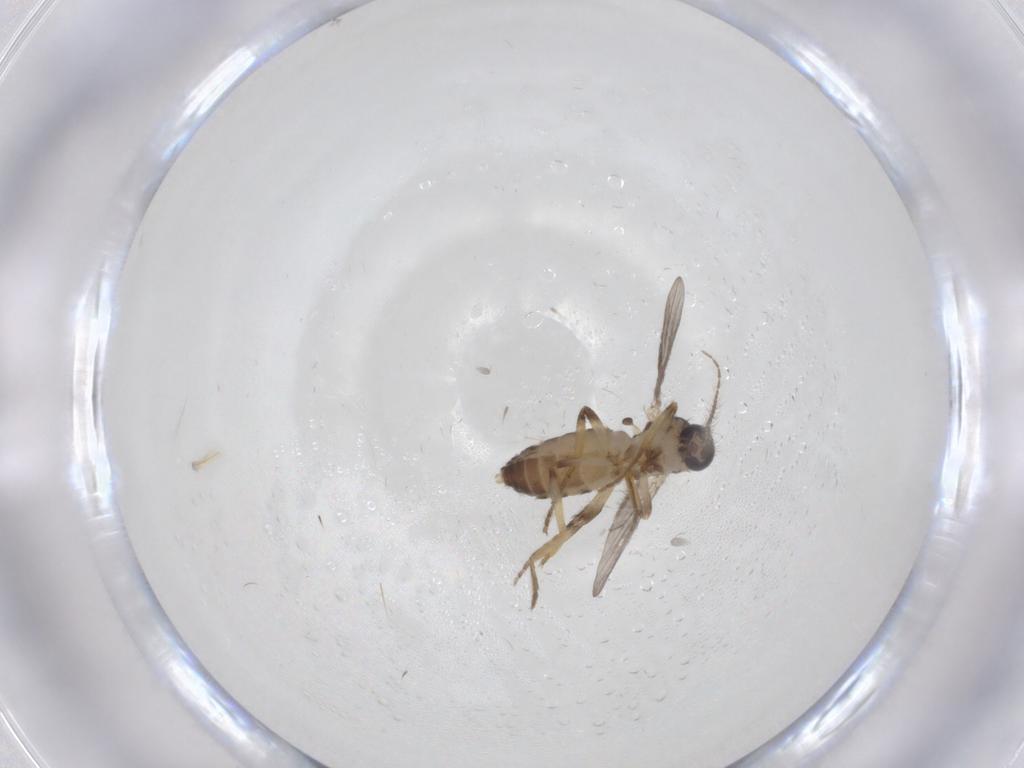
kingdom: Animalia
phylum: Arthropoda
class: Insecta
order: Diptera
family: Ceratopogonidae
